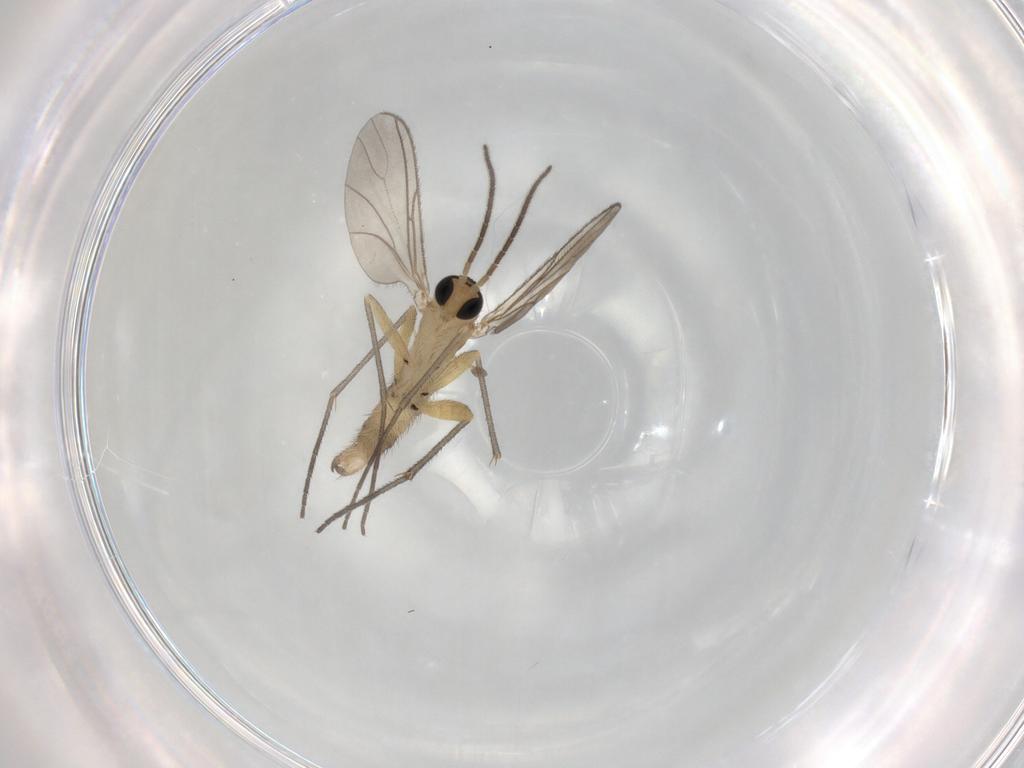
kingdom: Animalia
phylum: Arthropoda
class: Insecta
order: Diptera
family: Sciaridae
